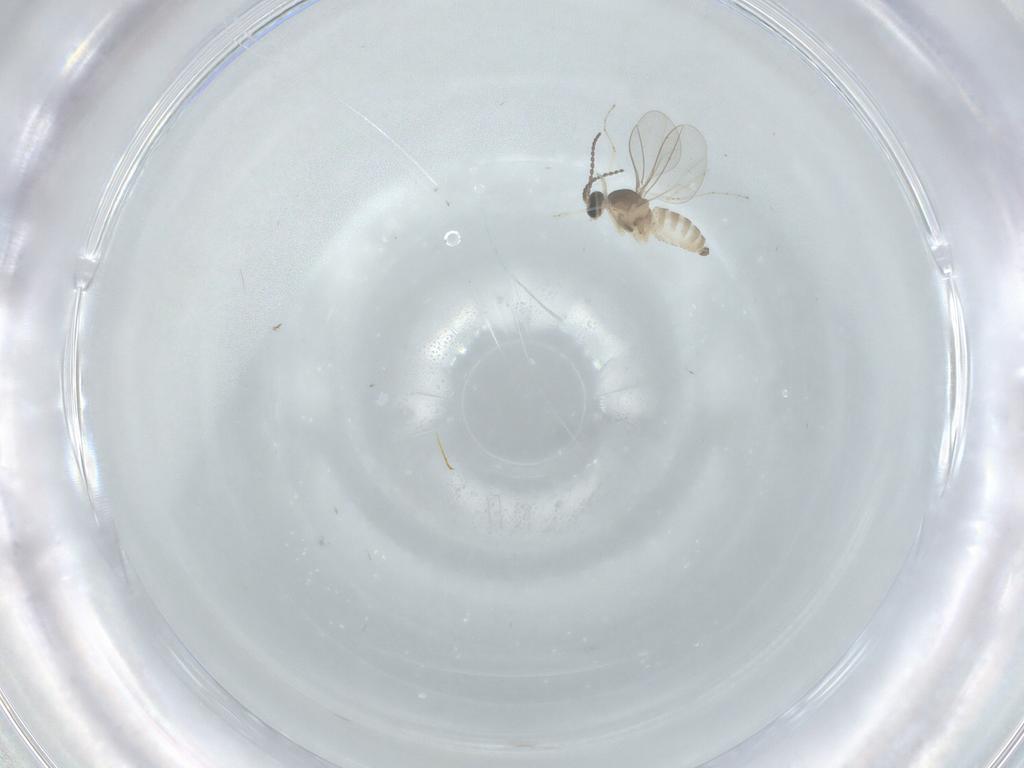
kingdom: Animalia
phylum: Arthropoda
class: Insecta
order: Diptera
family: Cecidomyiidae
